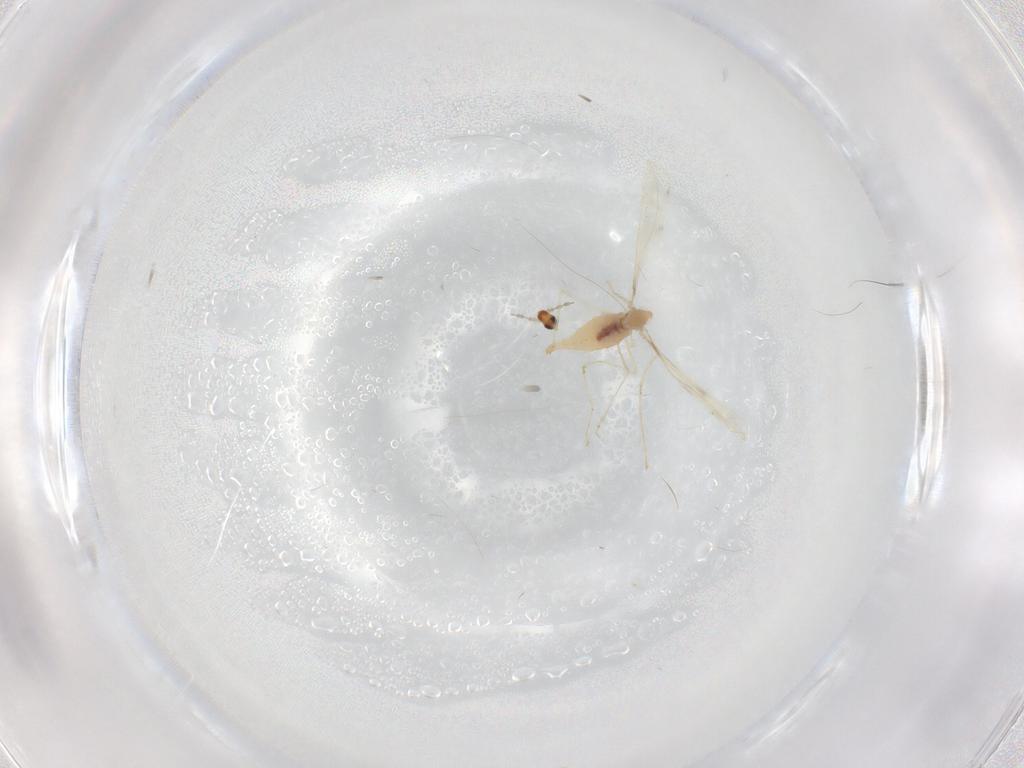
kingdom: Animalia
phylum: Arthropoda
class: Insecta
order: Diptera
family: Cecidomyiidae
